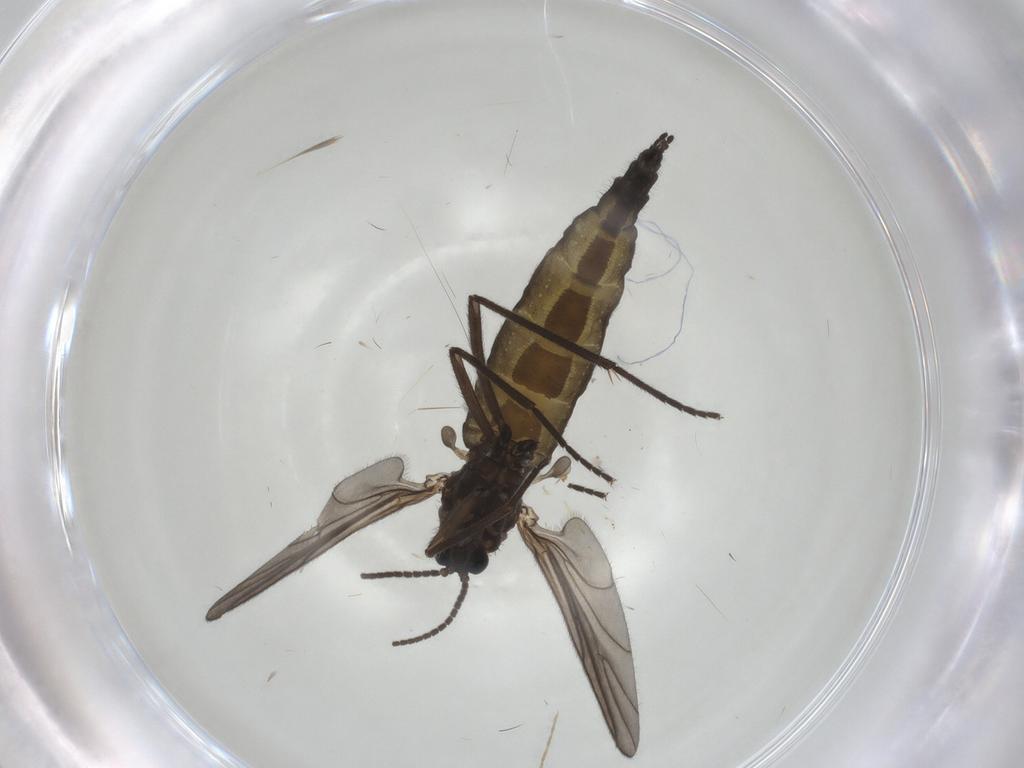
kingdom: Animalia
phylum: Arthropoda
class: Insecta
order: Diptera
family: Sciaridae
